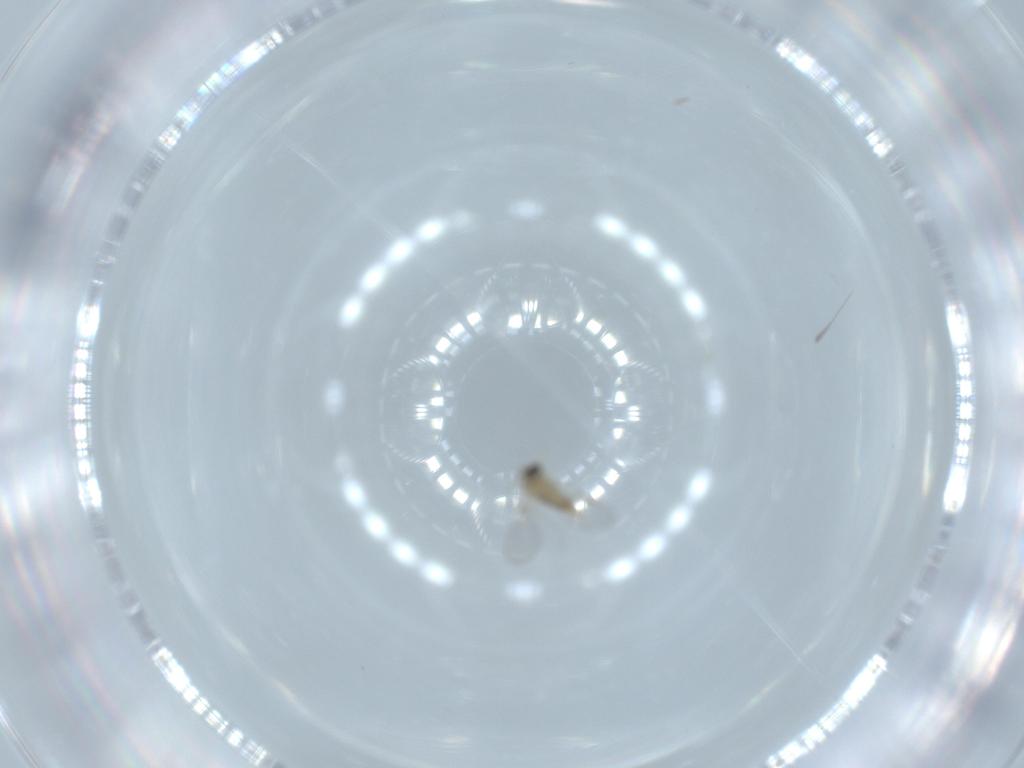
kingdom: Animalia
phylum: Arthropoda
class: Insecta
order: Diptera
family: Cecidomyiidae
